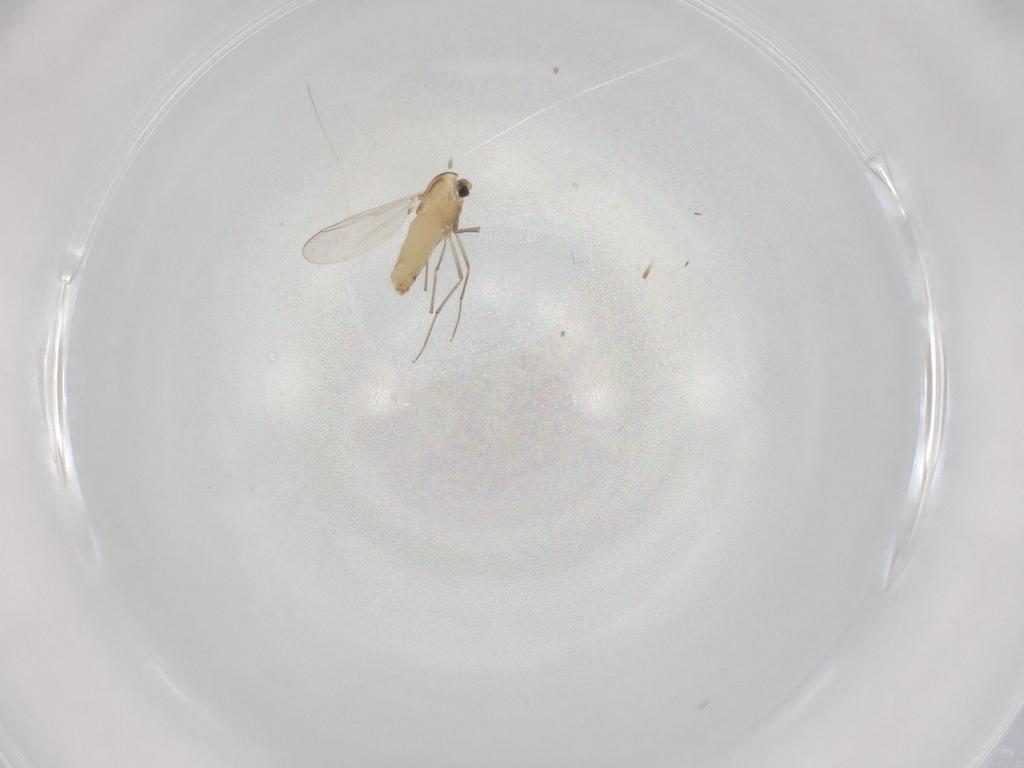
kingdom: Animalia
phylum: Arthropoda
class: Insecta
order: Diptera
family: Chironomidae
